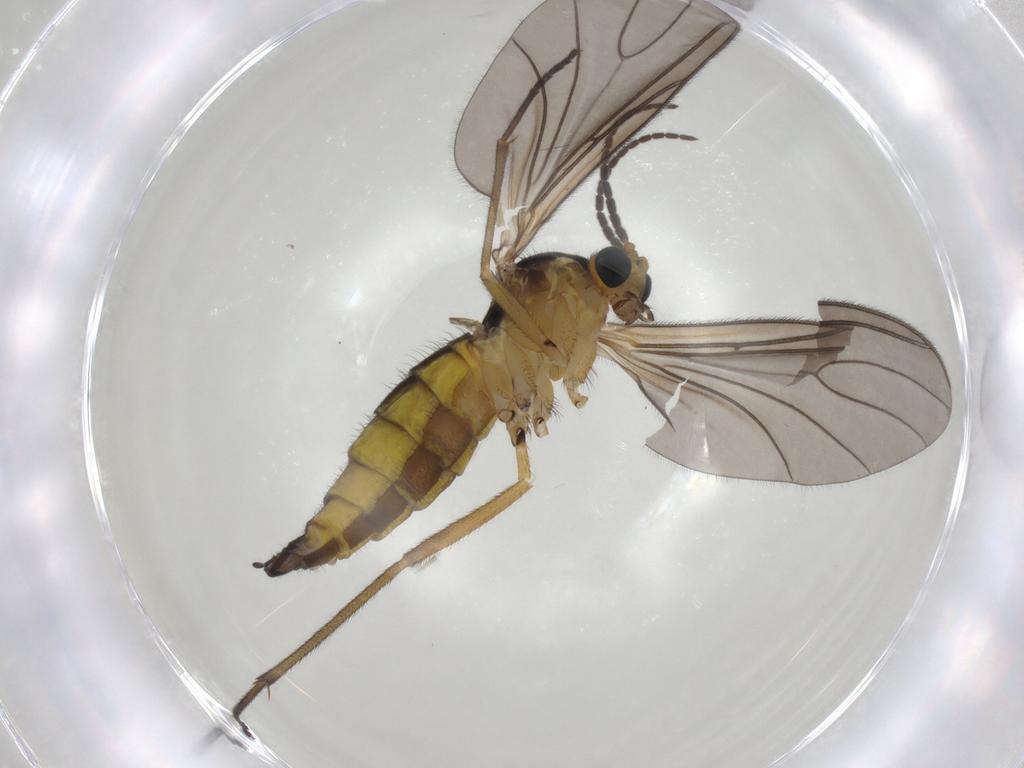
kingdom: Animalia
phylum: Arthropoda
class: Insecta
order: Diptera
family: Sciaridae
